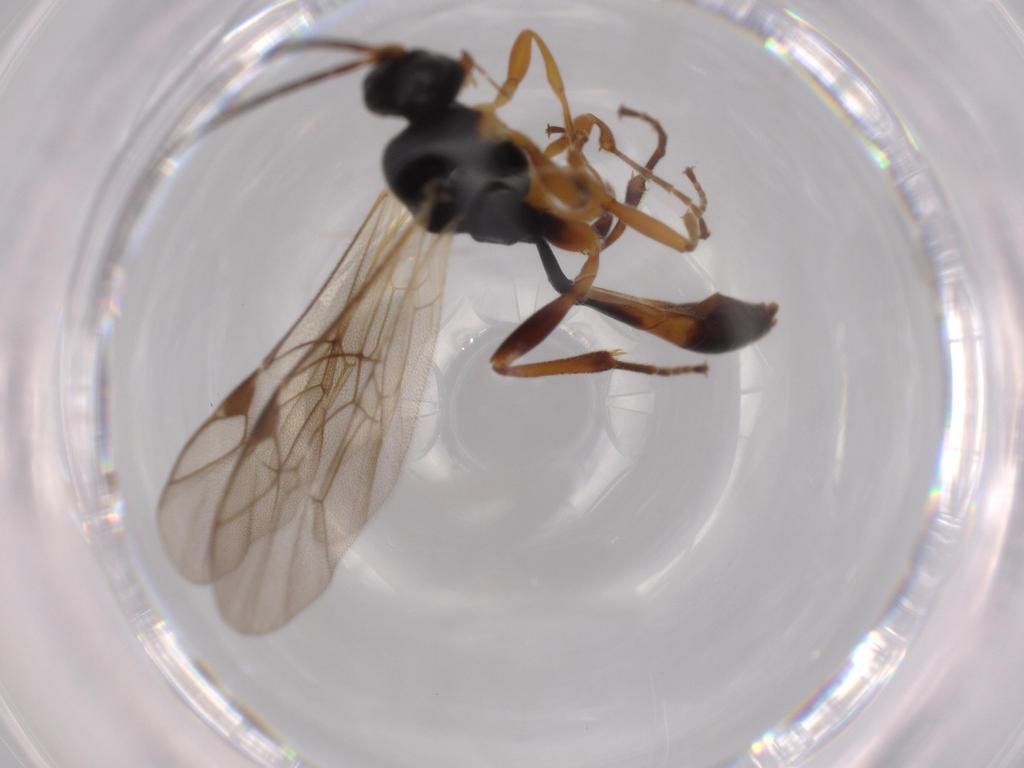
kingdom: Animalia
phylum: Arthropoda
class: Insecta
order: Hymenoptera
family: Ichneumonidae
